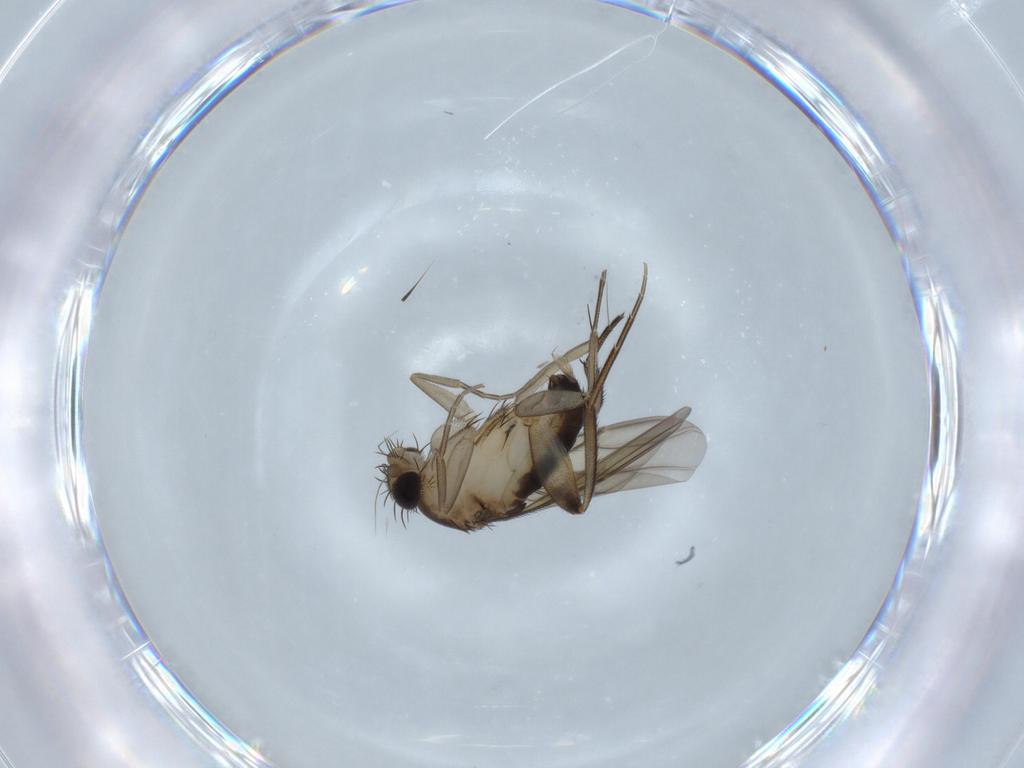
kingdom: Animalia
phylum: Arthropoda
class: Insecta
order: Diptera
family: Phoridae
